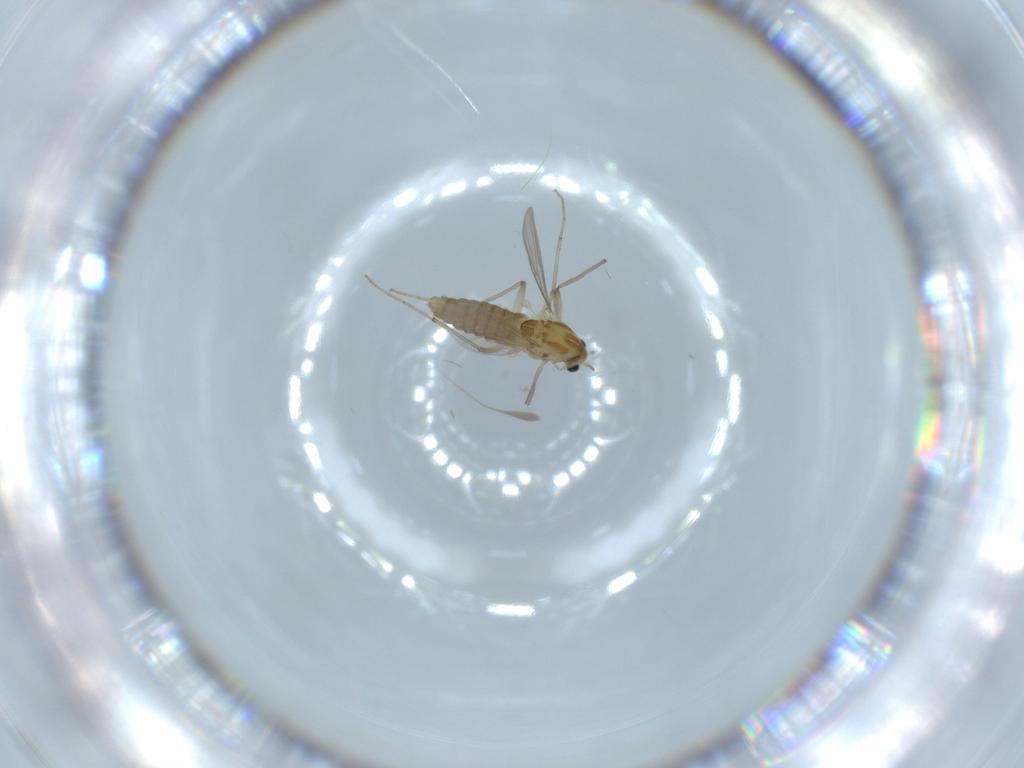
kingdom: Animalia
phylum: Arthropoda
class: Insecta
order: Diptera
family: Chironomidae
